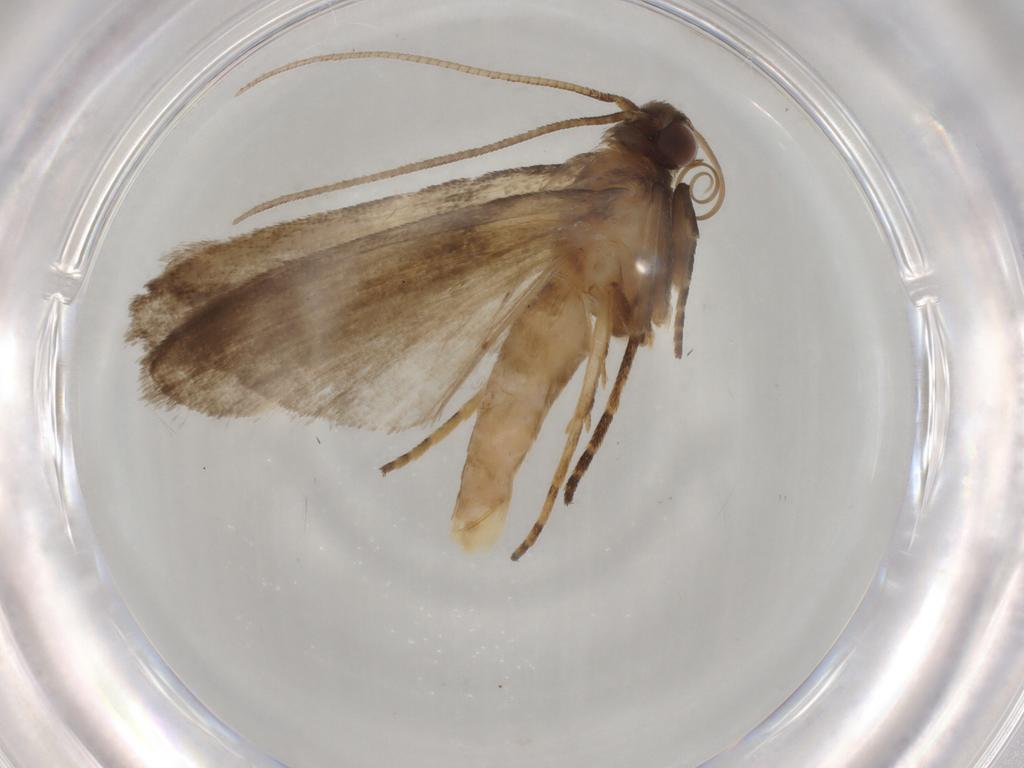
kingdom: Animalia
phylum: Arthropoda
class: Insecta
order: Lepidoptera
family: Noctuidae
